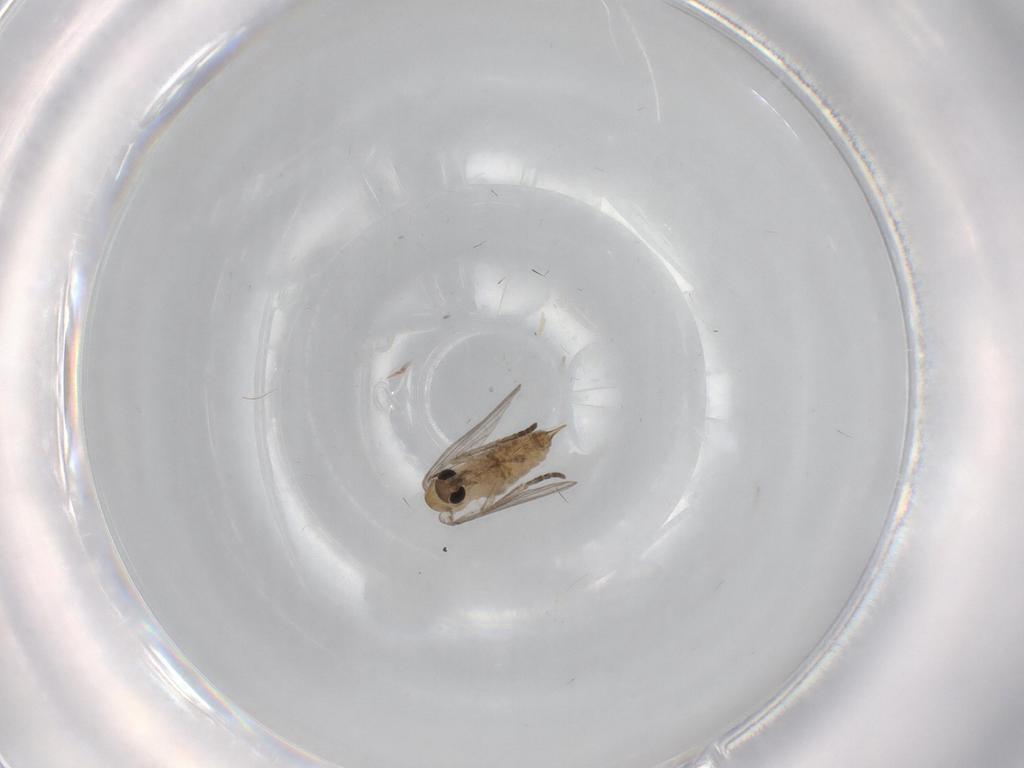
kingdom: Animalia
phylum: Arthropoda
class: Insecta
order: Diptera
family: Psychodidae
